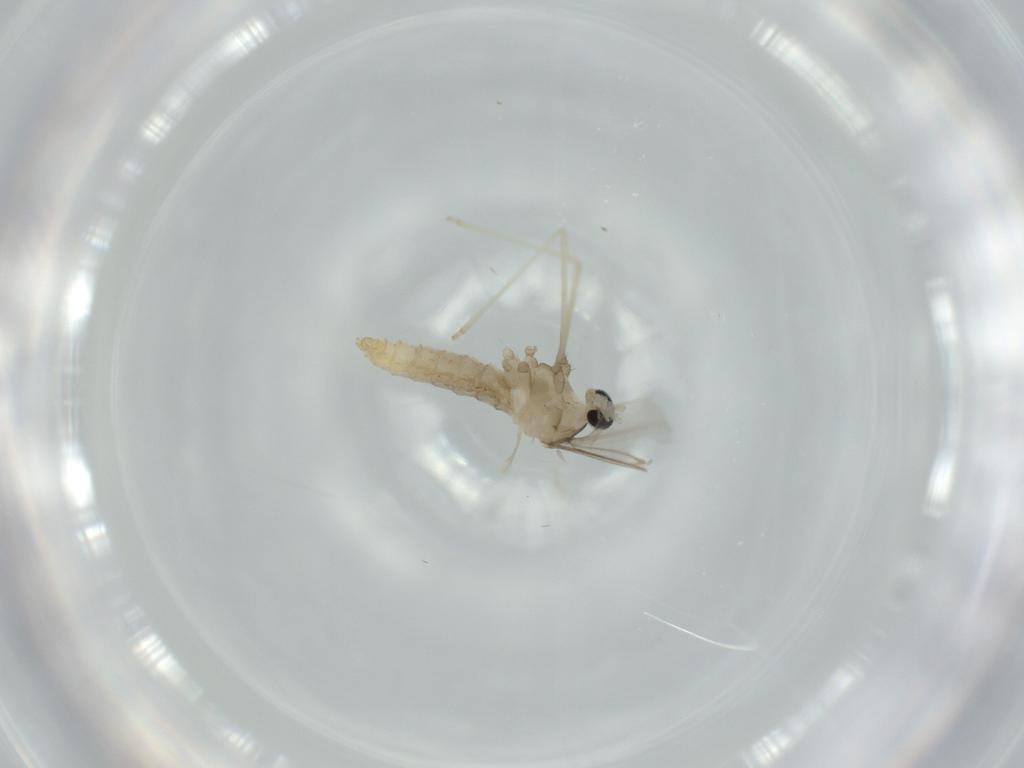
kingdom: Animalia
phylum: Arthropoda
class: Insecta
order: Diptera
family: Cecidomyiidae
